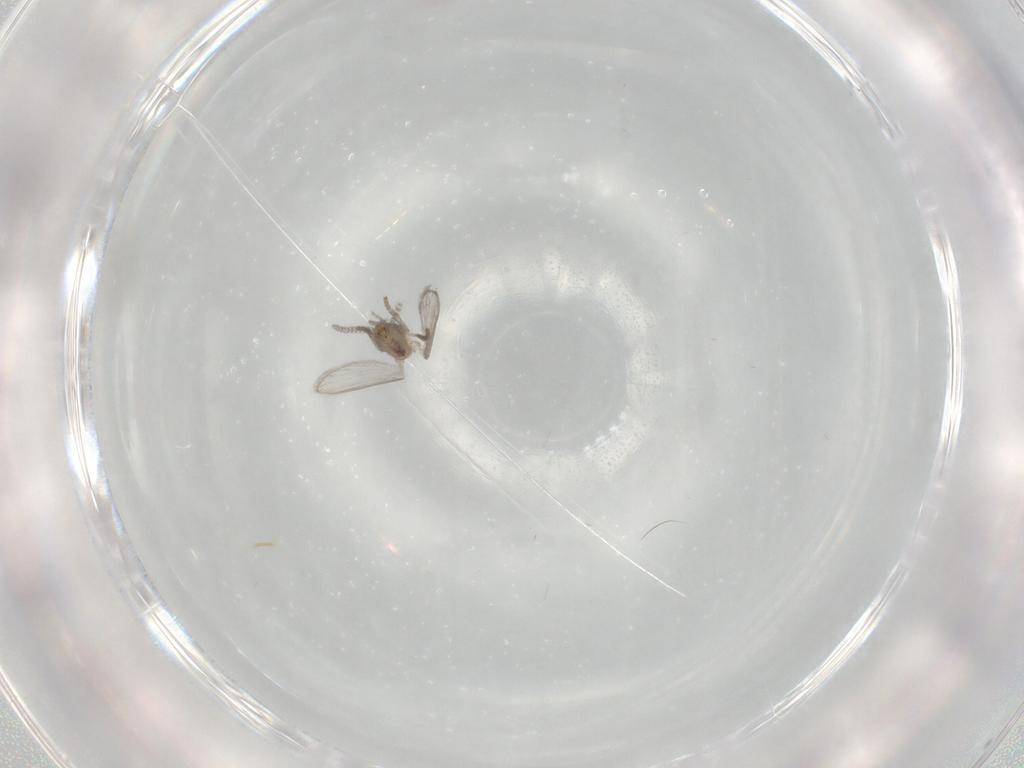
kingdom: Animalia
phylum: Arthropoda
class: Insecta
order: Diptera
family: Psychodidae
